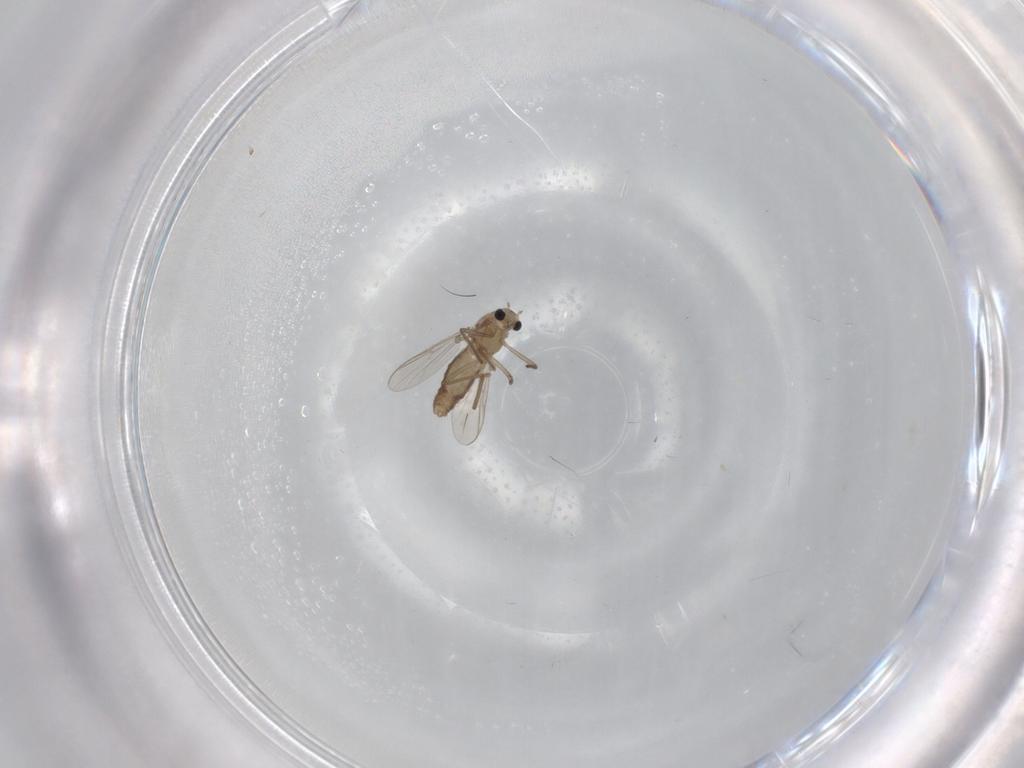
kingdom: Animalia
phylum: Arthropoda
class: Insecta
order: Diptera
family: Chironomidae
